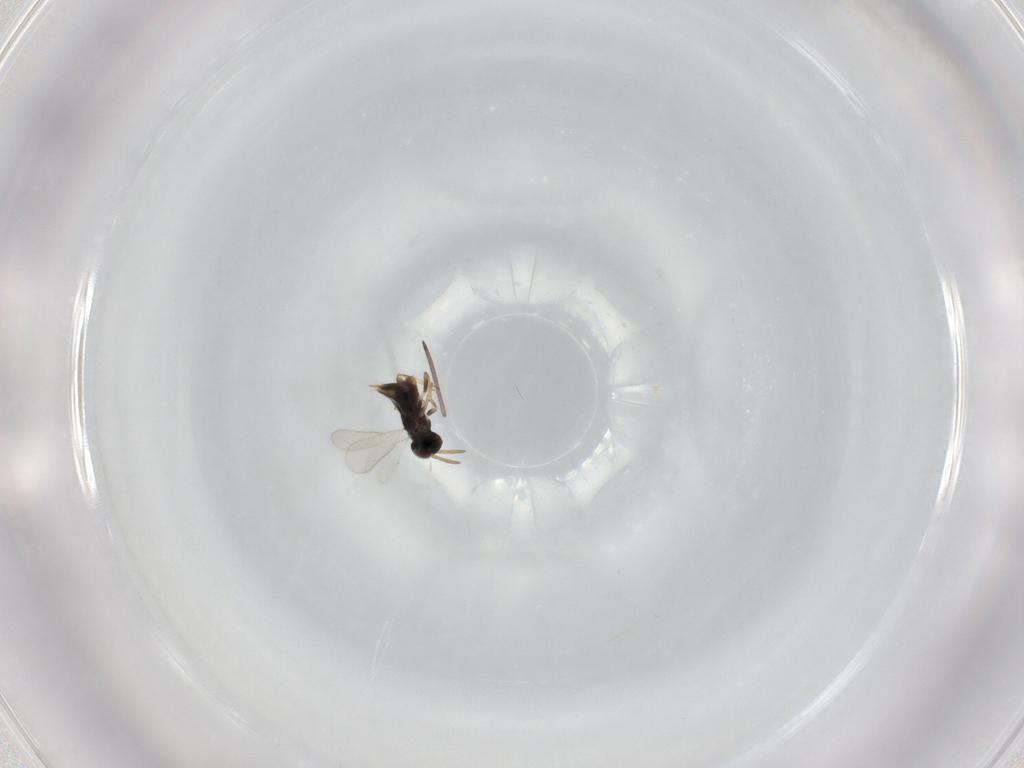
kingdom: Animalia
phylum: Arthropoda
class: Insecta
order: Hymenoptera
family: Aphelinidae
